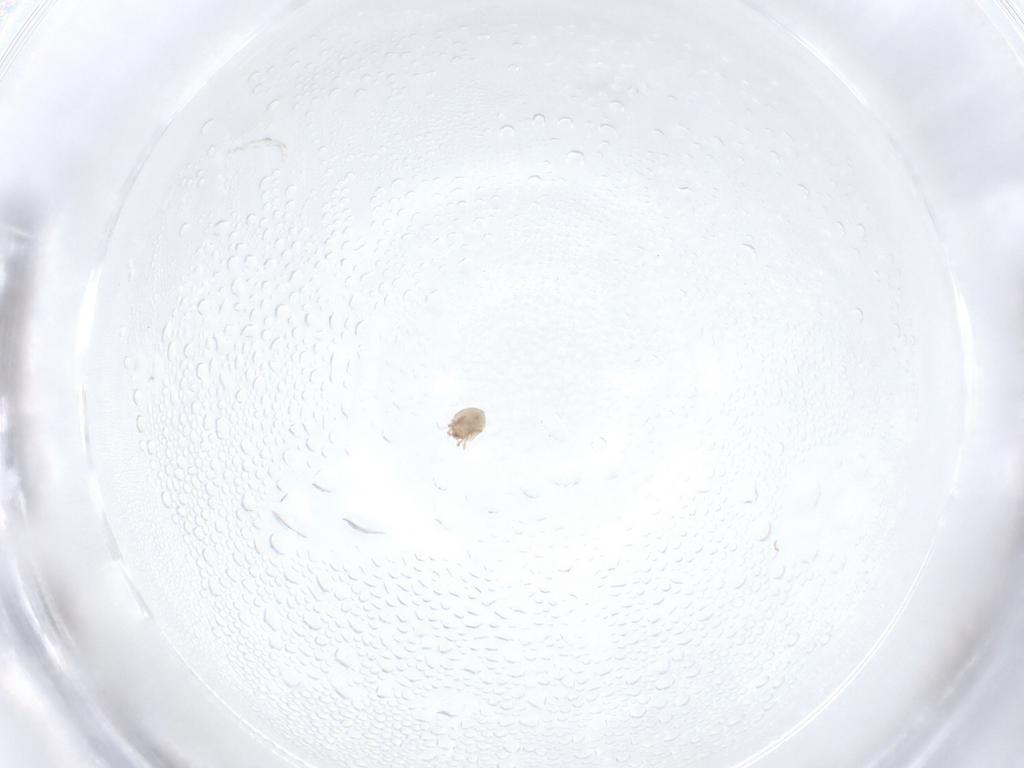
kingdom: Animalia
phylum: Arthropoda
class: Arachnida
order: Sarcoptiformes
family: Galumnidae
